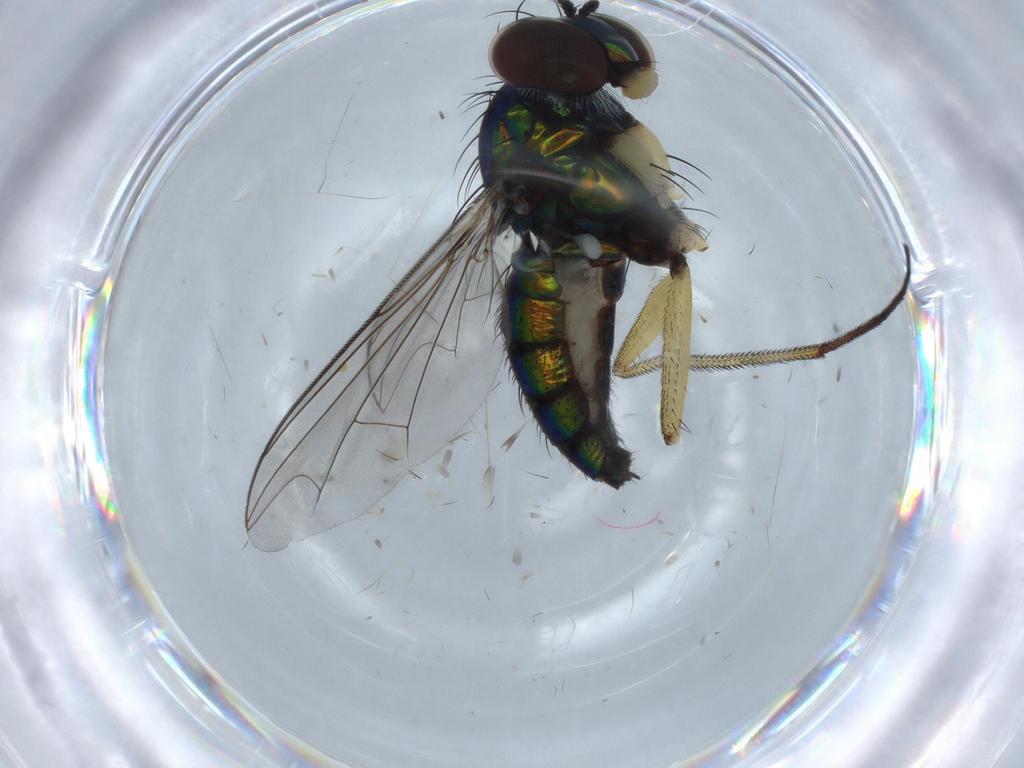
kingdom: Animalia
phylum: Arthropoda
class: Insecta
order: Diptera
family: Dolichopodidae
